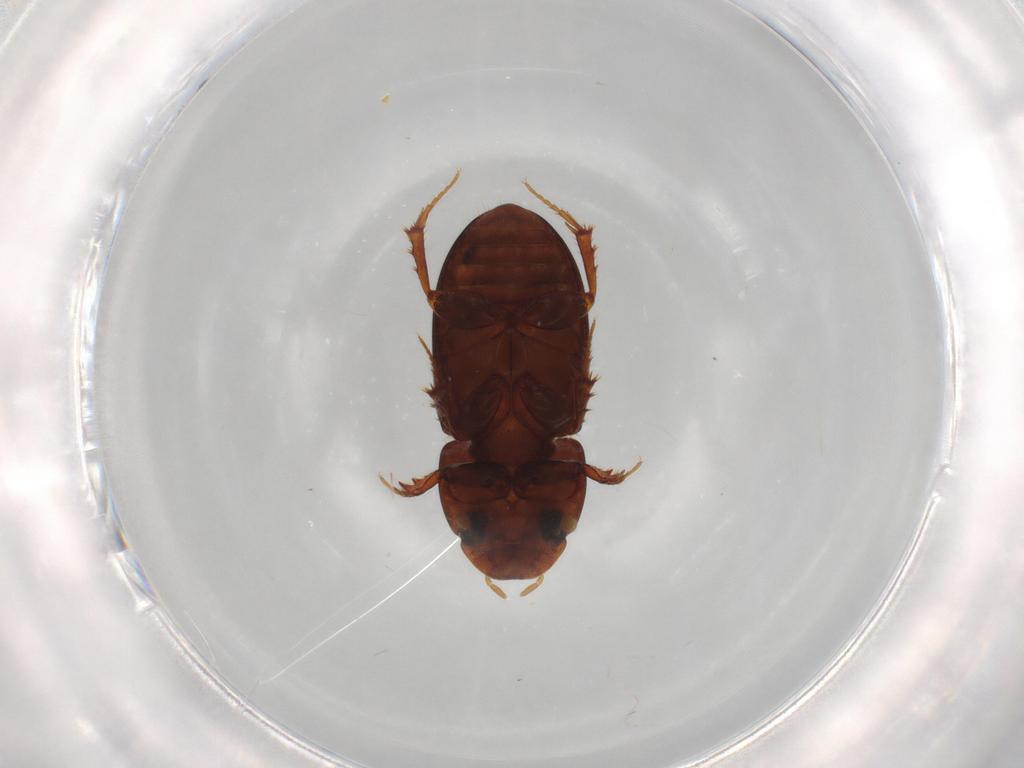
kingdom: Animalia
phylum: Arthropoda
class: Insecta
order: Coleoptera
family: Scarabaeidae
